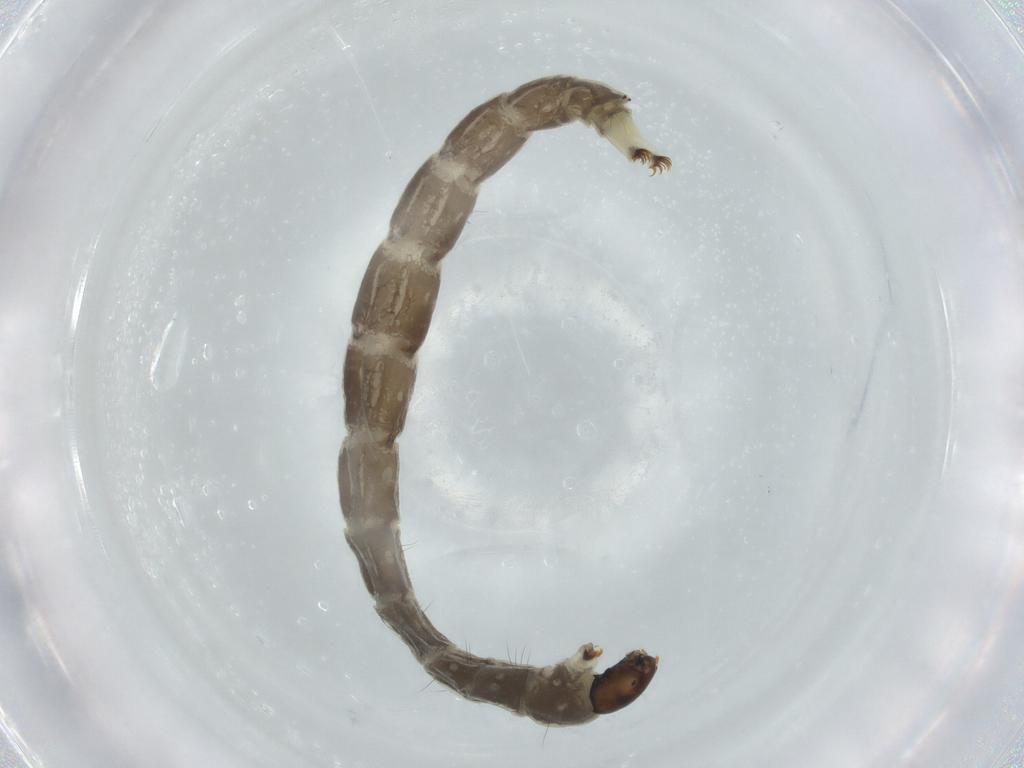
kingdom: Animalia
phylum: Arthropoda
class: Insecta
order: Diptera
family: Chironomidae
